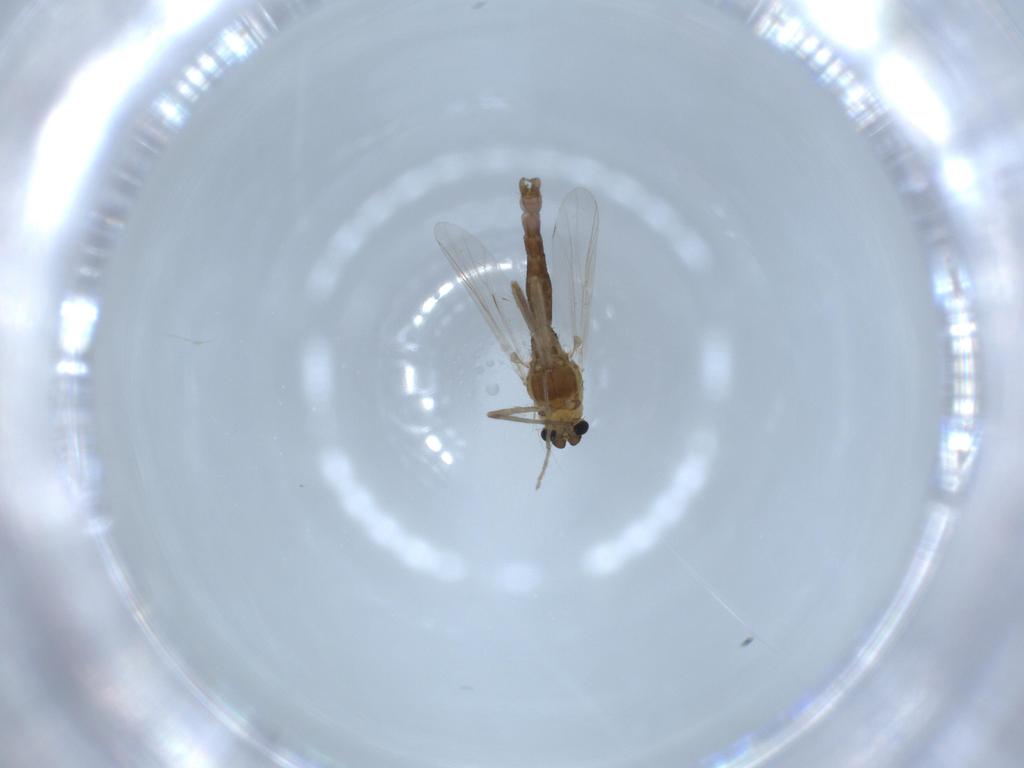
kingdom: Animalia
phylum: Arthropoda
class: Insecta
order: Diptera
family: Chironomidae
